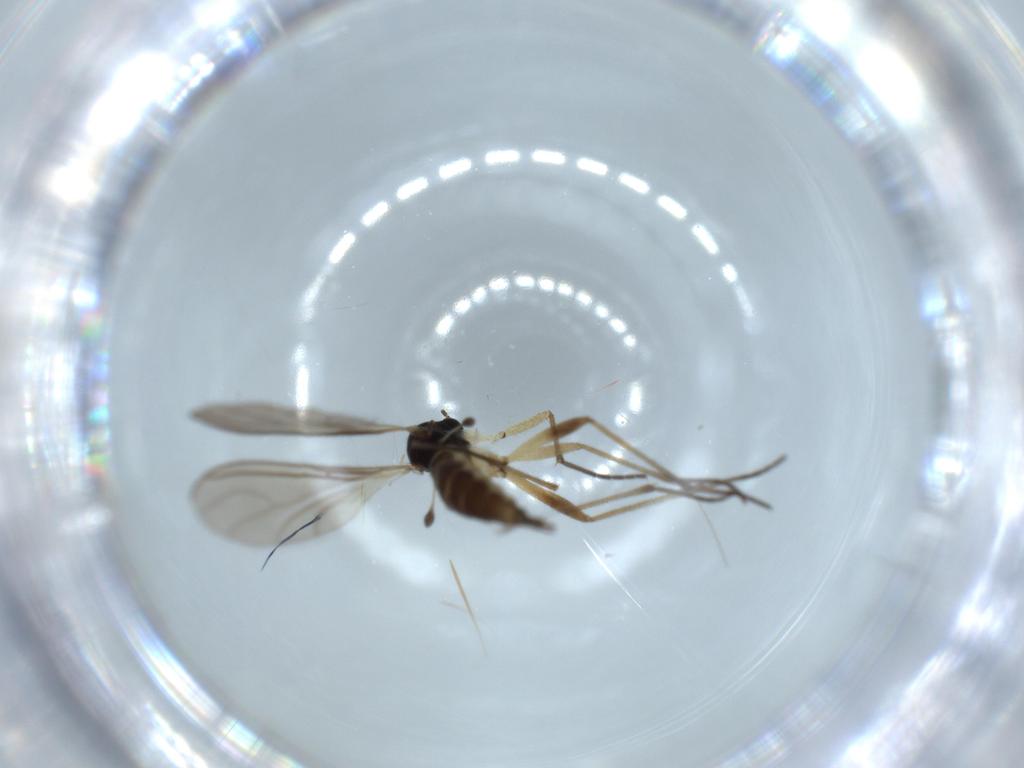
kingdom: Animalia
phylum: Arthropoda
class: Insecta
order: Diptera
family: Sciaridae
